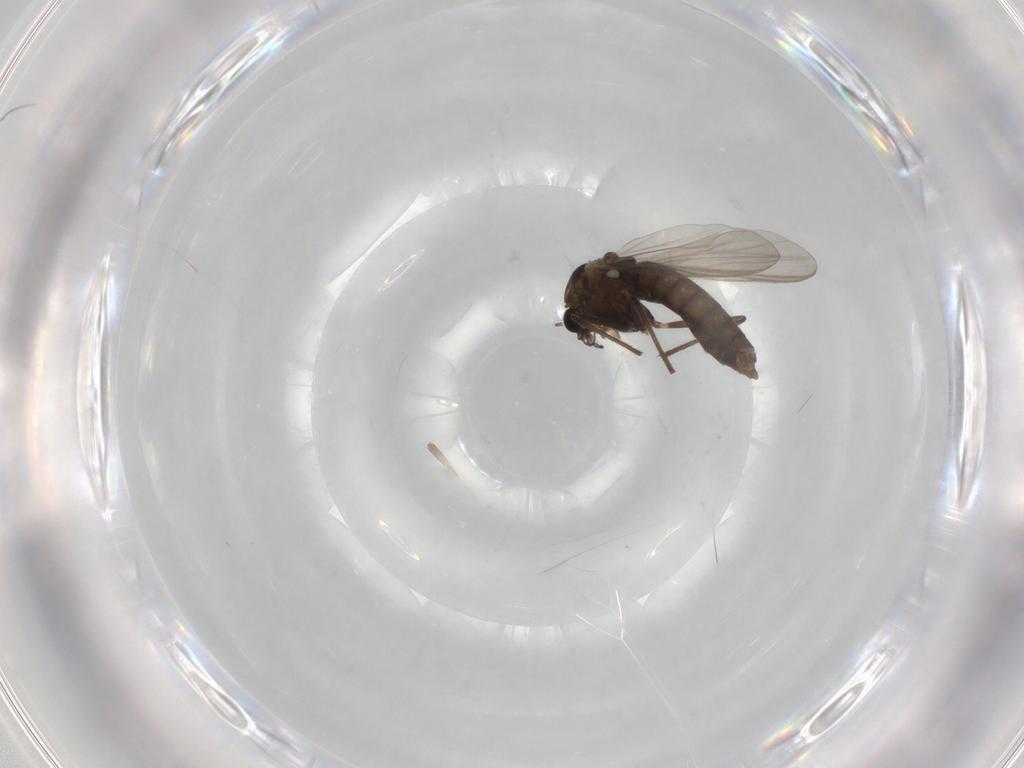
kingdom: Animalia
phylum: Arthropoda
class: Insecta
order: Diptera
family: Chironomidae
